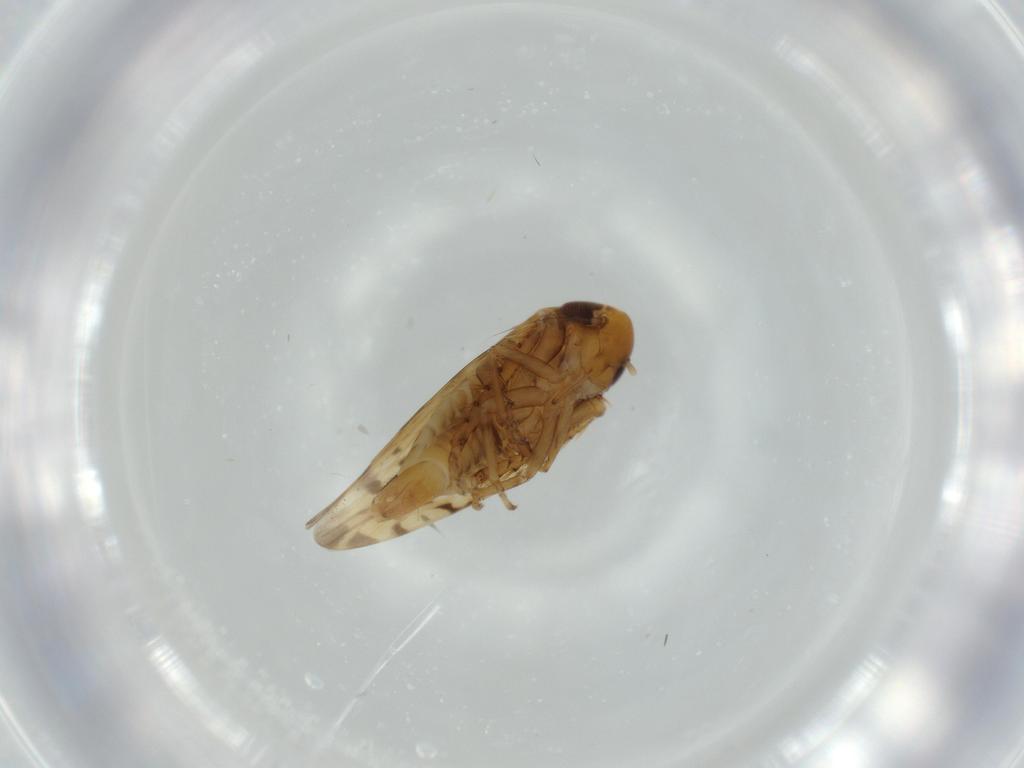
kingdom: Animalia
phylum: Arthropoda
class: Insecta
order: Hemiptera
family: Cicadellidae
